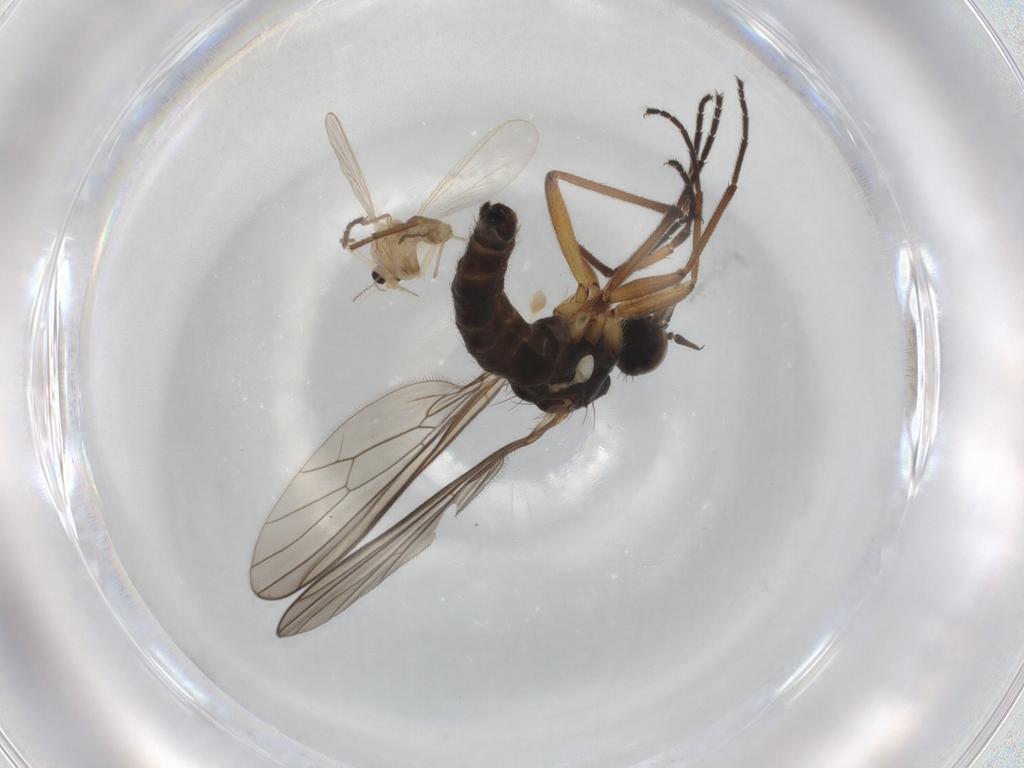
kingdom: Animalia
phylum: Arthropoda
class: Insecta
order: Diptera
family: Chironomidae
